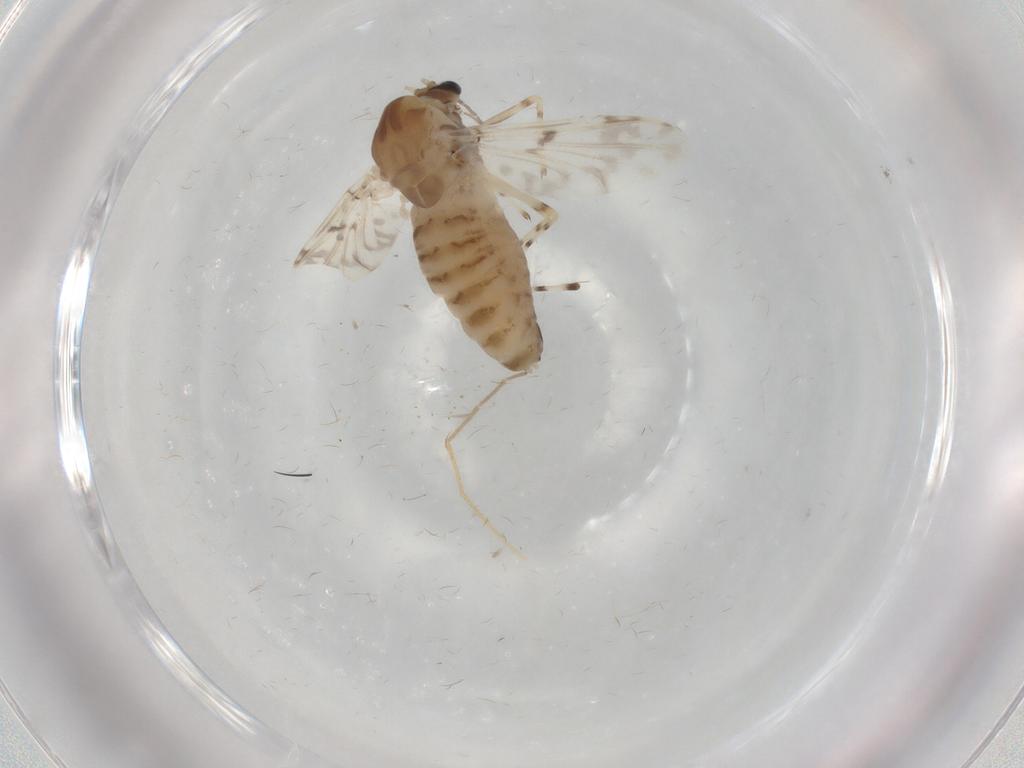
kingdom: Animalia
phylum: Arthropoda
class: Insecta
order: Diptera
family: Chironomidae
